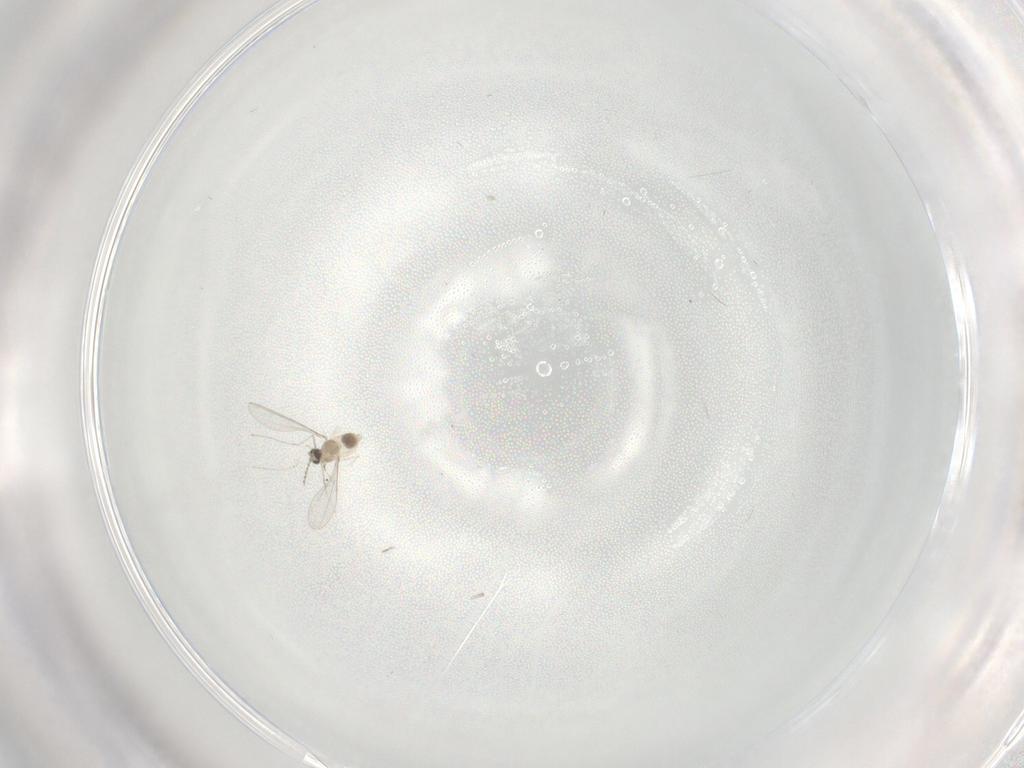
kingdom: Animalia
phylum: Arthropoda
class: Insecta
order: Diptera
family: Cecidomyiidae
